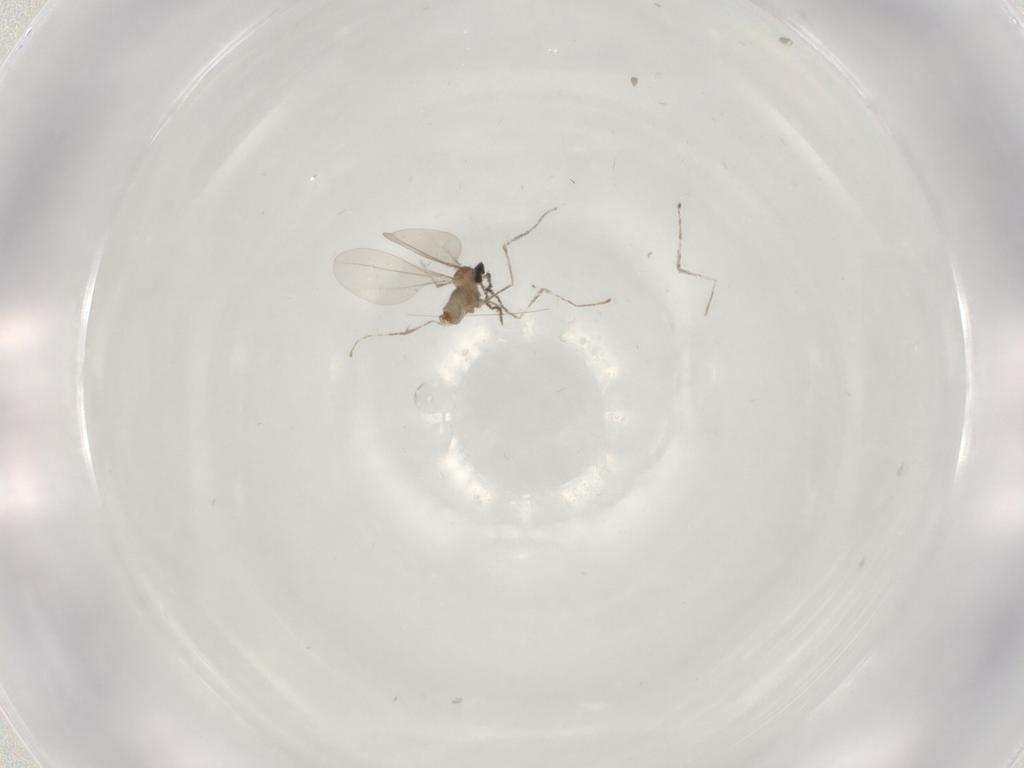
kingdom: Animalia
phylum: Arthropoda
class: Insecta
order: Diptera
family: Cecidomyiidae
